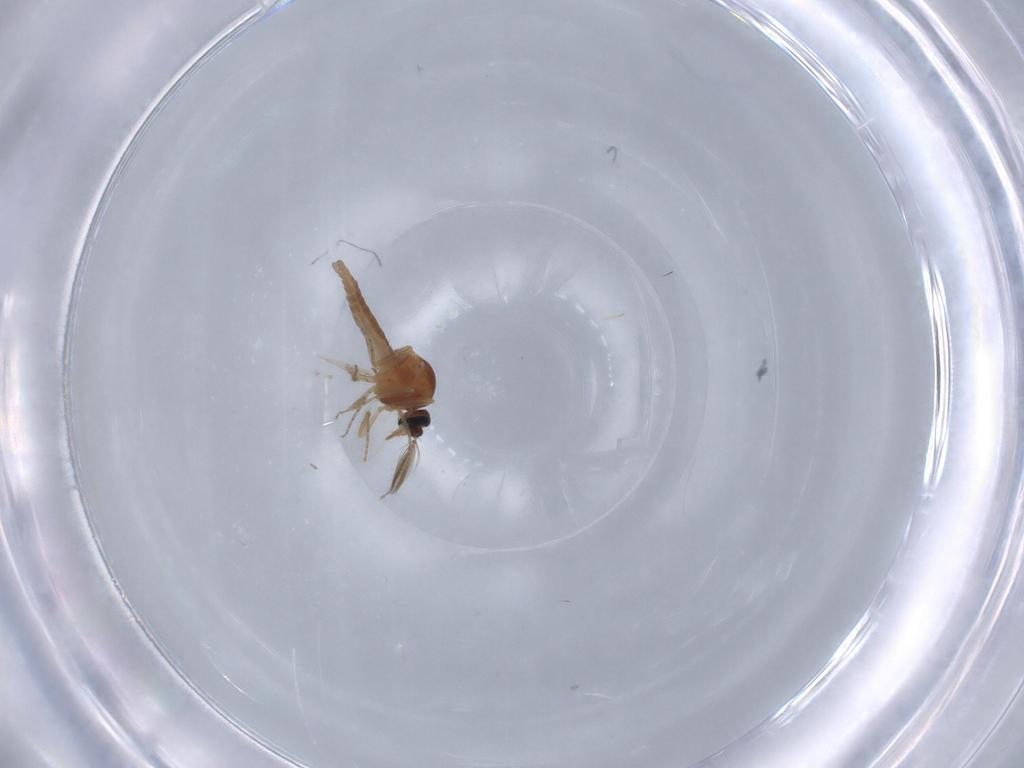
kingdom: Animalia
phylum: Arthropoda
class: Insecta
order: Diptera
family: Ceratopogonidae
